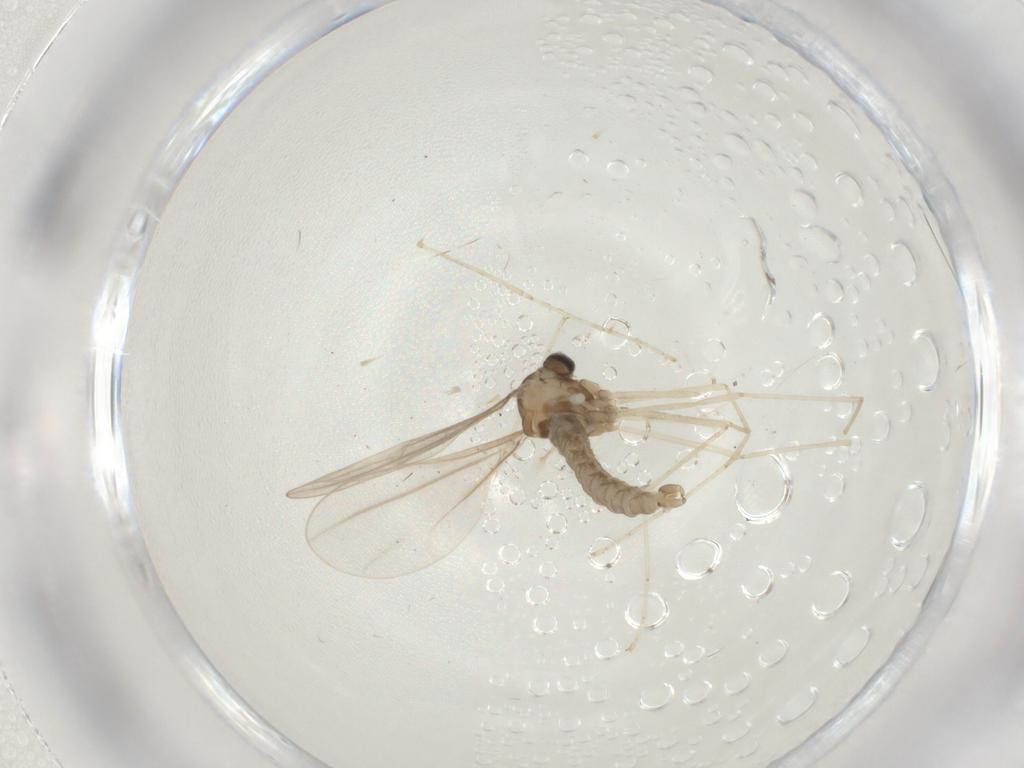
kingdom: Animalia
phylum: Arthropoda
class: Insecta
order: Diptera
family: Cecidomyiidae
